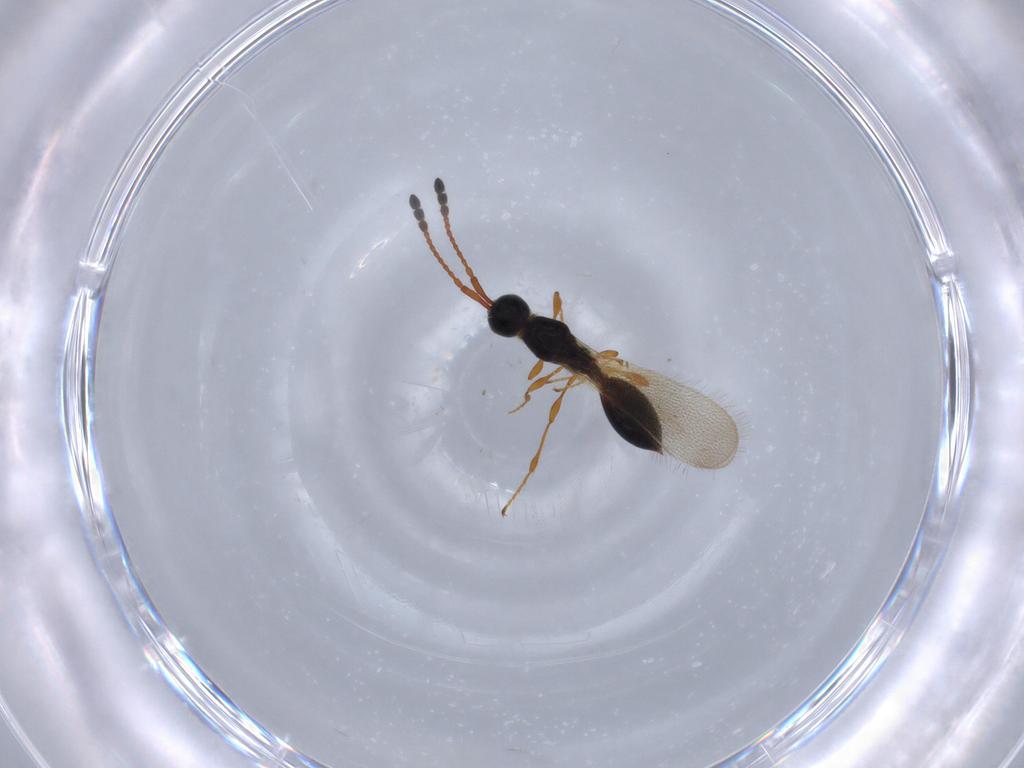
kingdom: Animalia
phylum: Arthropoda
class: Insecta
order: Hymenoptera
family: Diapriidae
